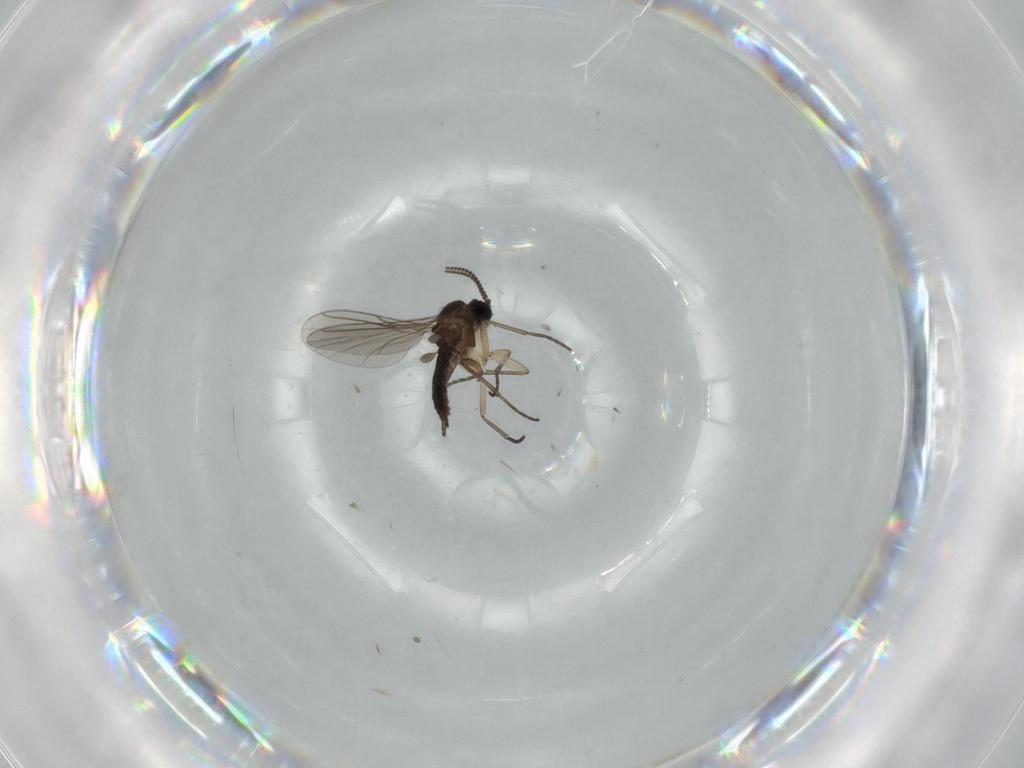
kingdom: Animalia
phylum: Arthropoda
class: Insecta
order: Diptera
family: Sciaridae
